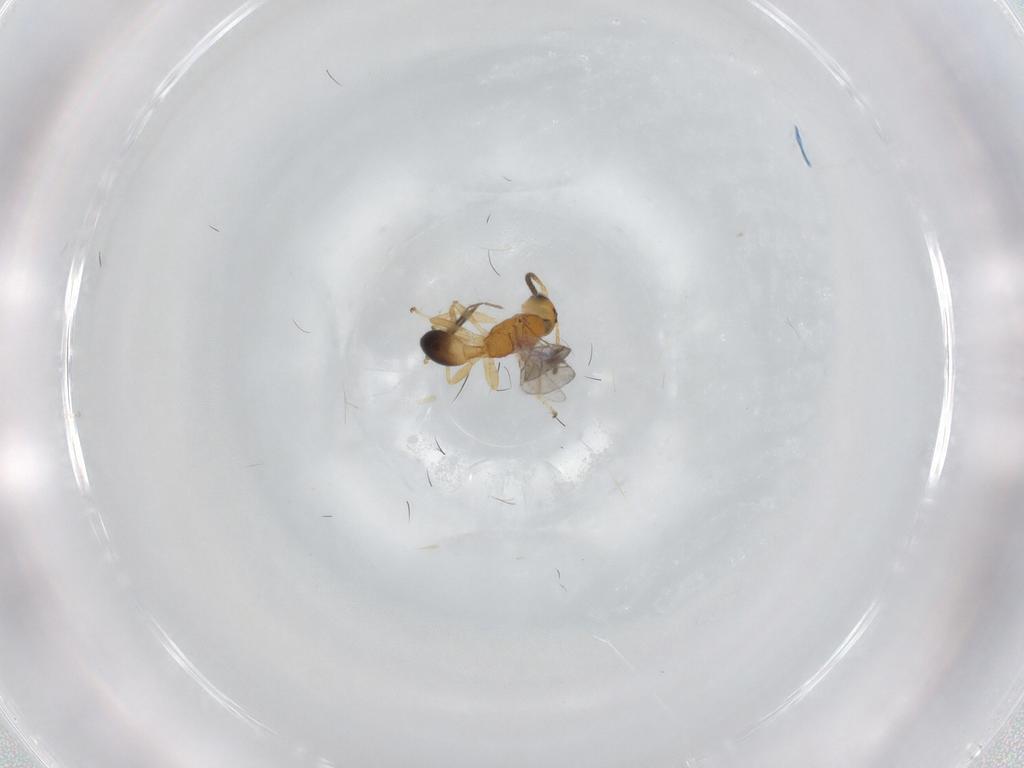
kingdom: Animalia
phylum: Arthropoda
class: Insecta
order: Hymenoptera
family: Braconidae
